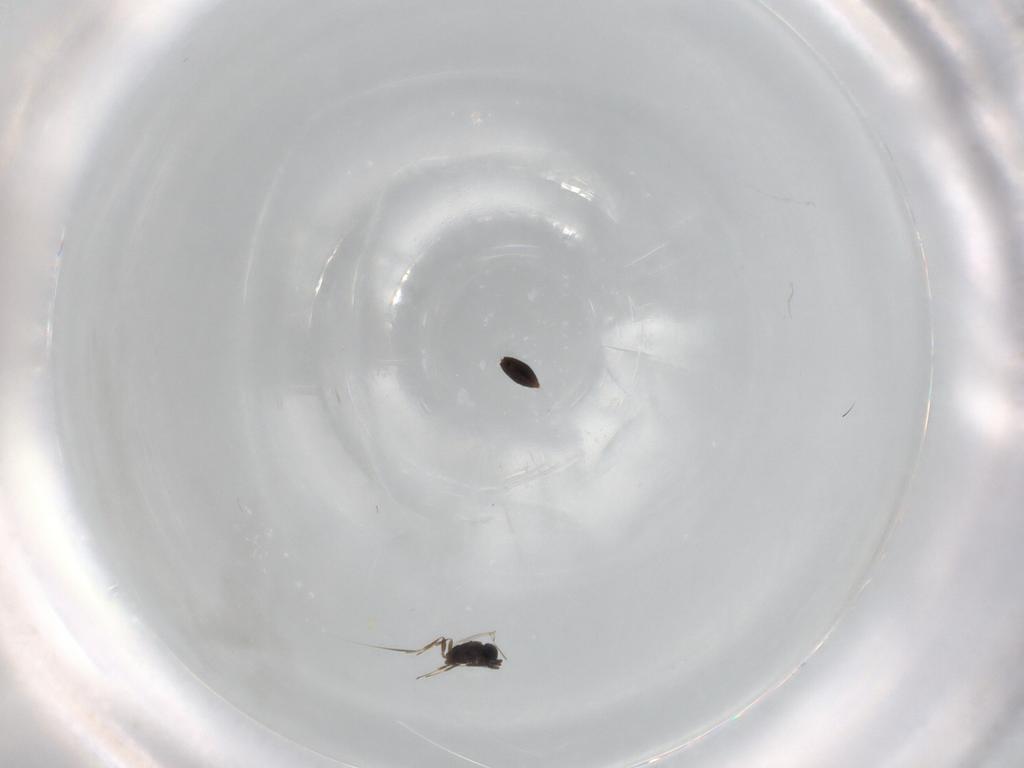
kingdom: Animalia
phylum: Arthropoda
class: Insecta
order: Hymenoptera
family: Scelionidae
